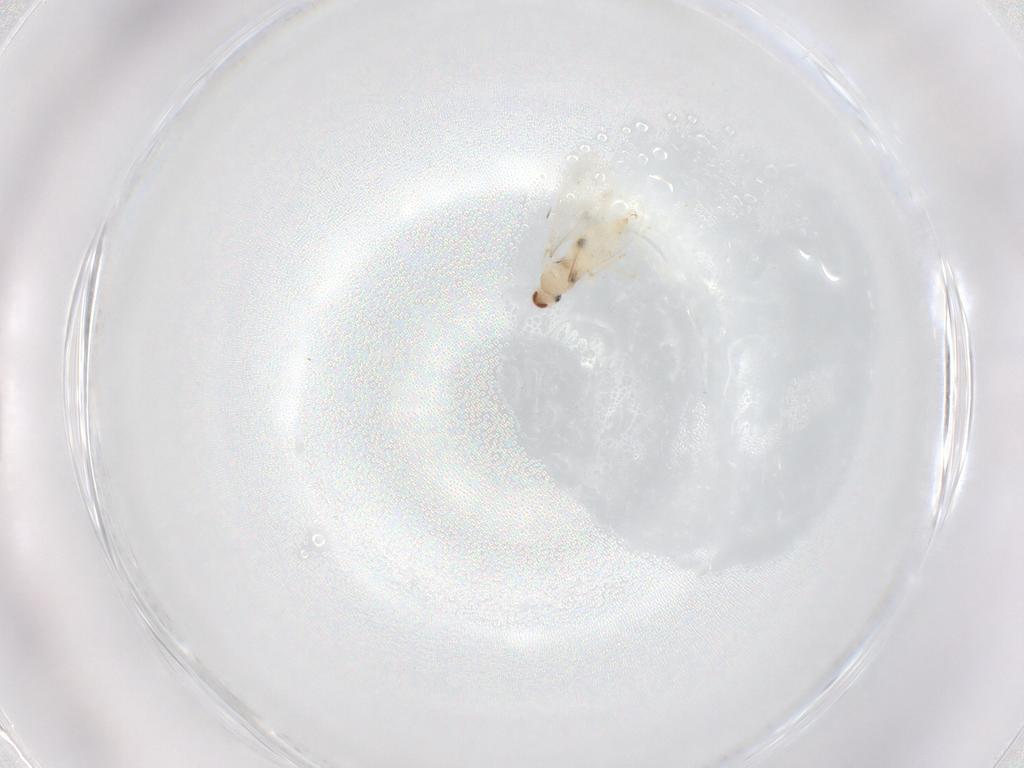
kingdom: Animalia
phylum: Arthropoda
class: Insecta
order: Diptera
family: Cecidomyiidae
